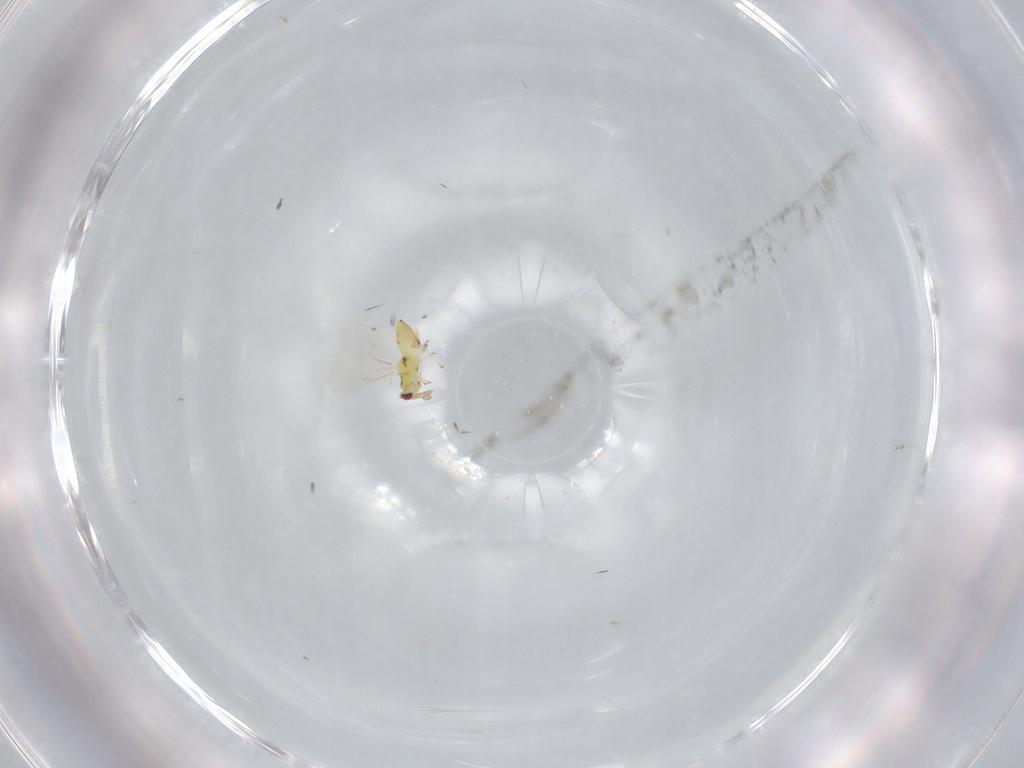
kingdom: Animalia
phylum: Arthropoda
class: Insecta
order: Hymenoptera
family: Eulophidae
